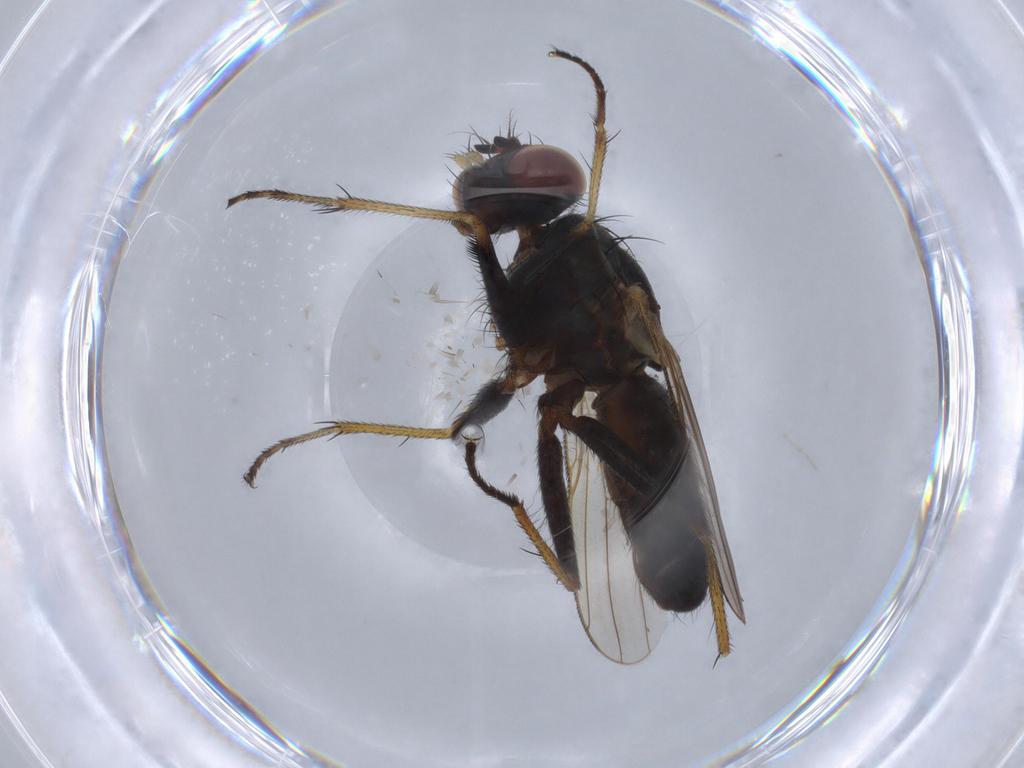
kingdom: Animalia
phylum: Arthropoda
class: Insecta
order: Diptera
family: Muscidae
